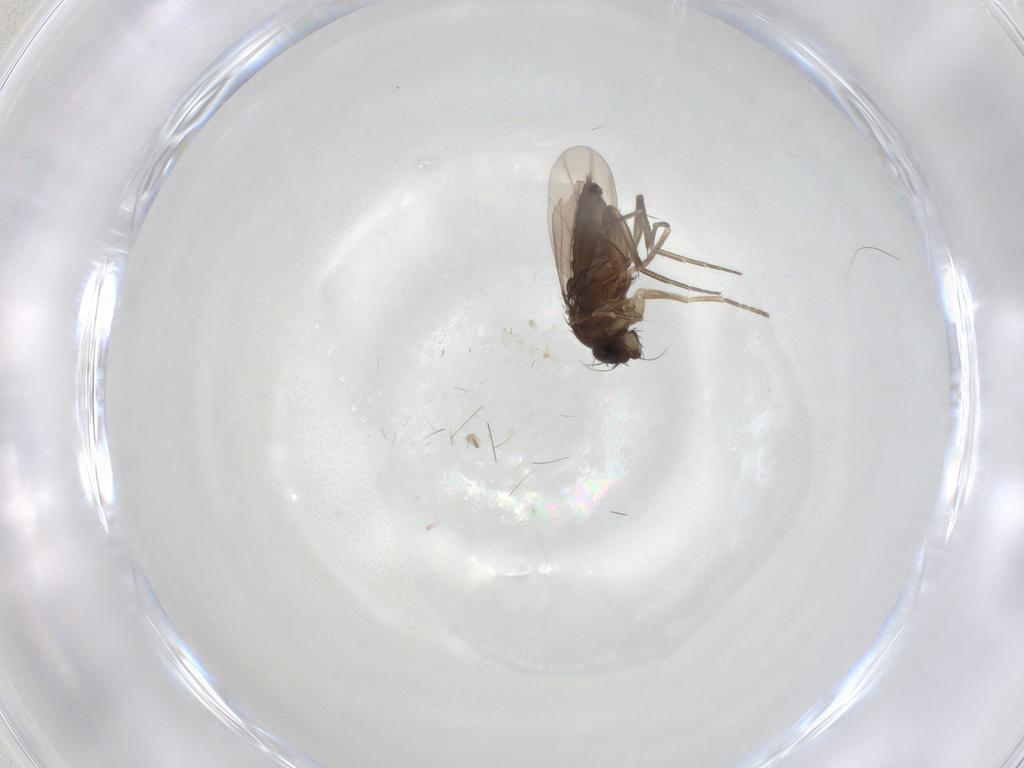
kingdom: Animalia
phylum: Arthropoda
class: Insecta
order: Diptera
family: Phoridae
